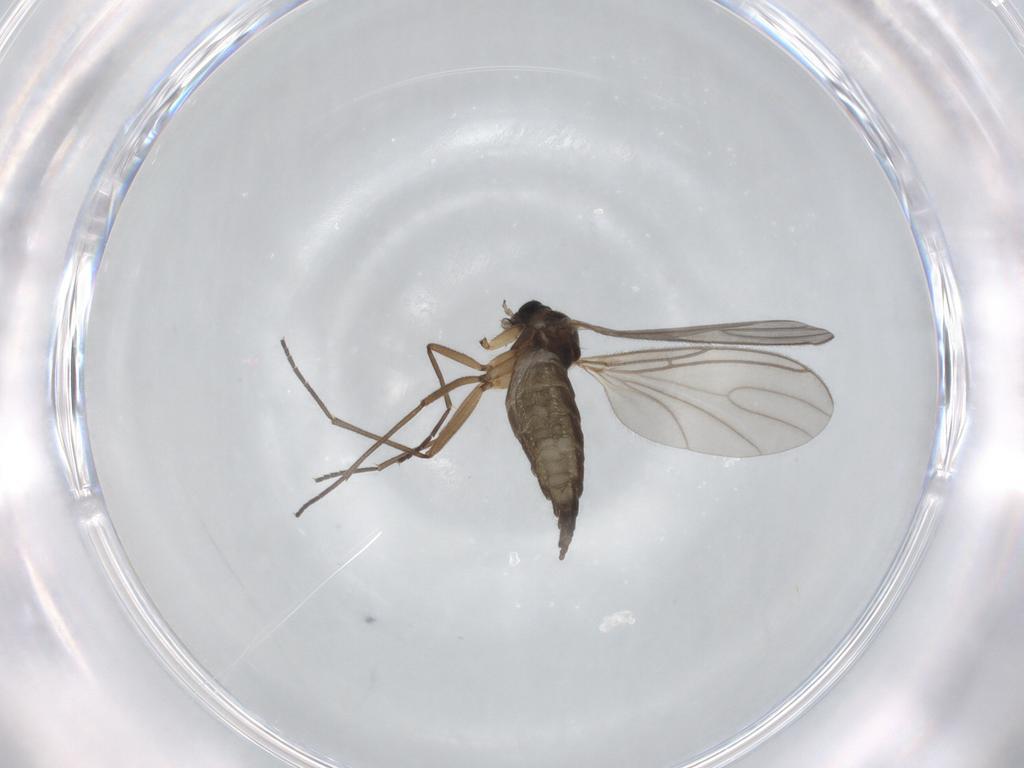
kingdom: Animalia
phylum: Arthropoda
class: Insecta
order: Diptera
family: Sciaridae
